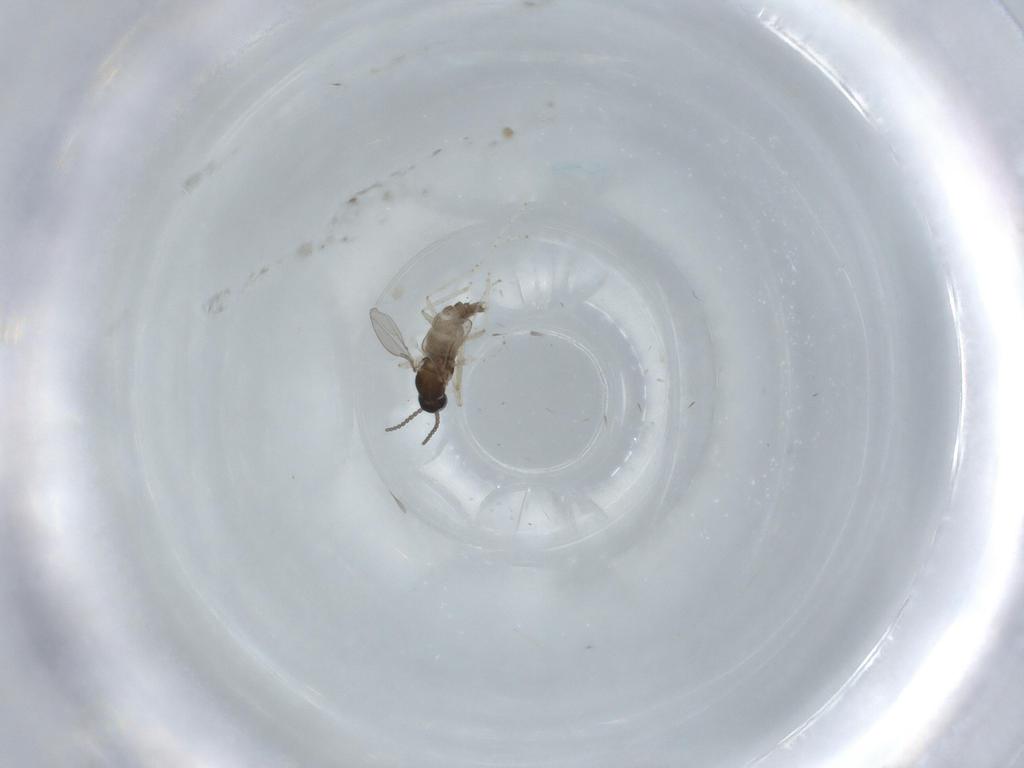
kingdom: Animalia
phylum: Arthropoda
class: Insecta
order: Diptera
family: Cecidomyiidae
